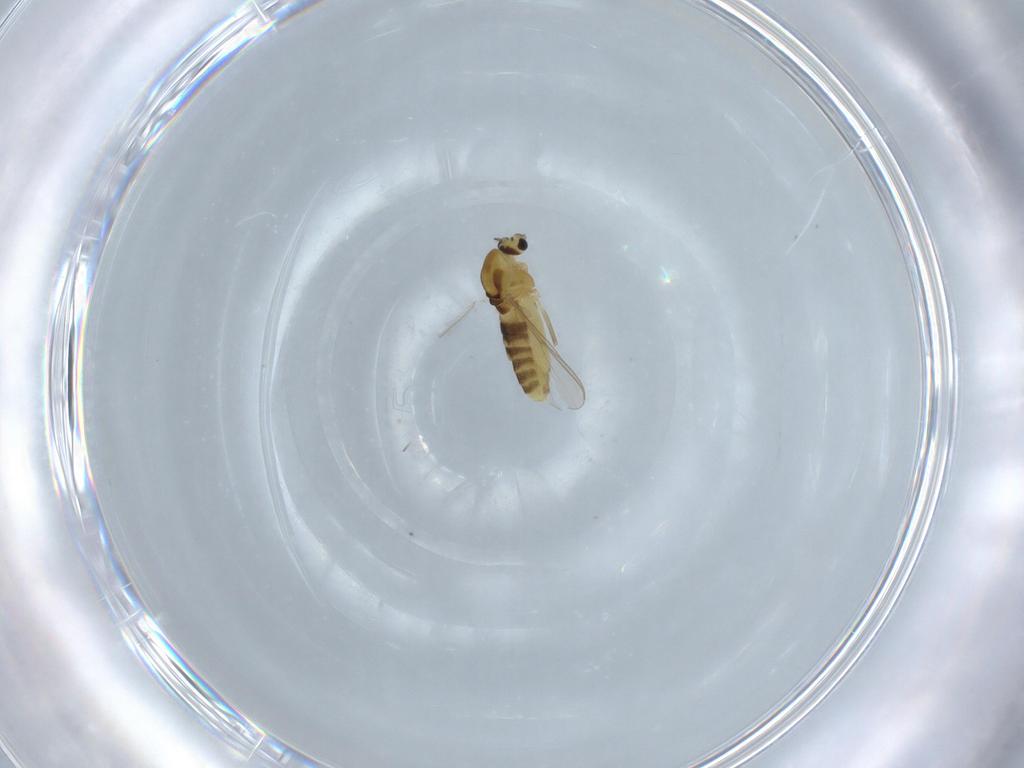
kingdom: Animalia
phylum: Arthropoda
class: Insecta
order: Diptera
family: Chironomidae
